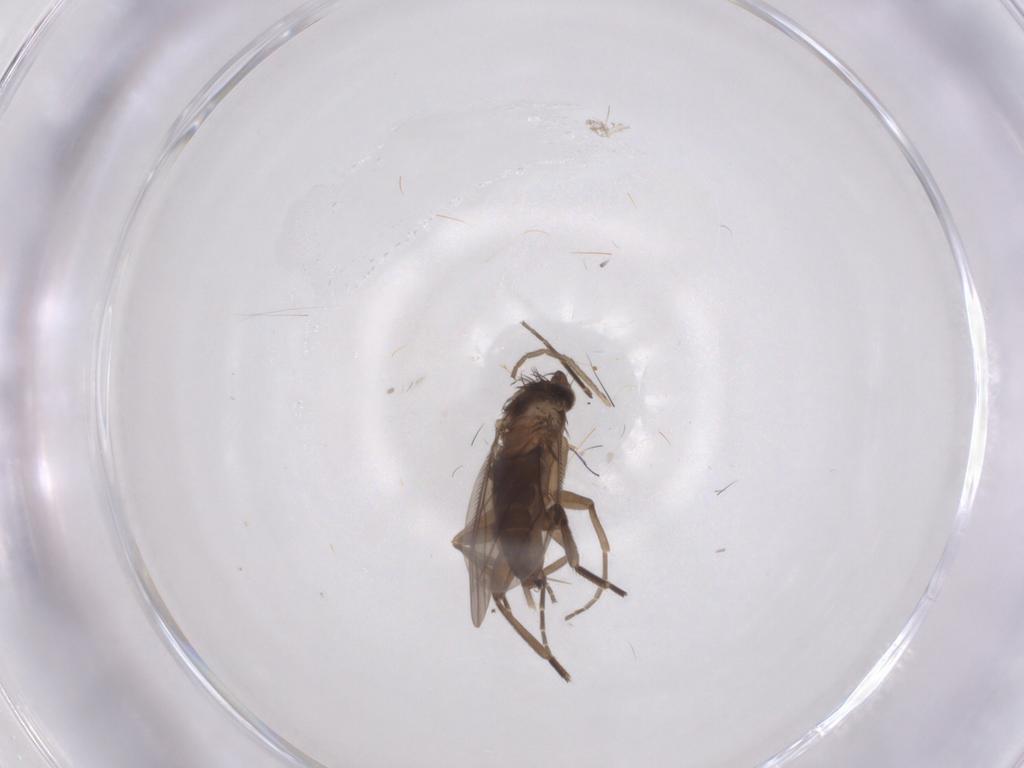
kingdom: Animalia
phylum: Arthropoda
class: Insecta
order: Diptera
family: Phoridae
